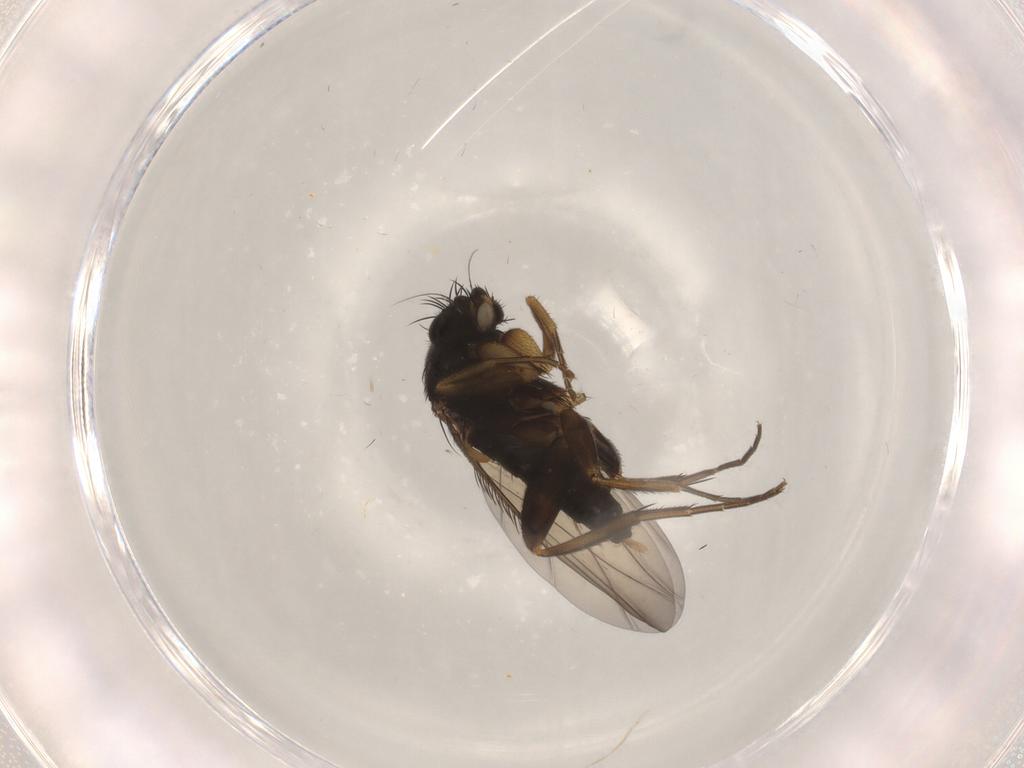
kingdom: Animalia
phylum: Arthropoda
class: Insecta
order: Diptera
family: Phoridae
